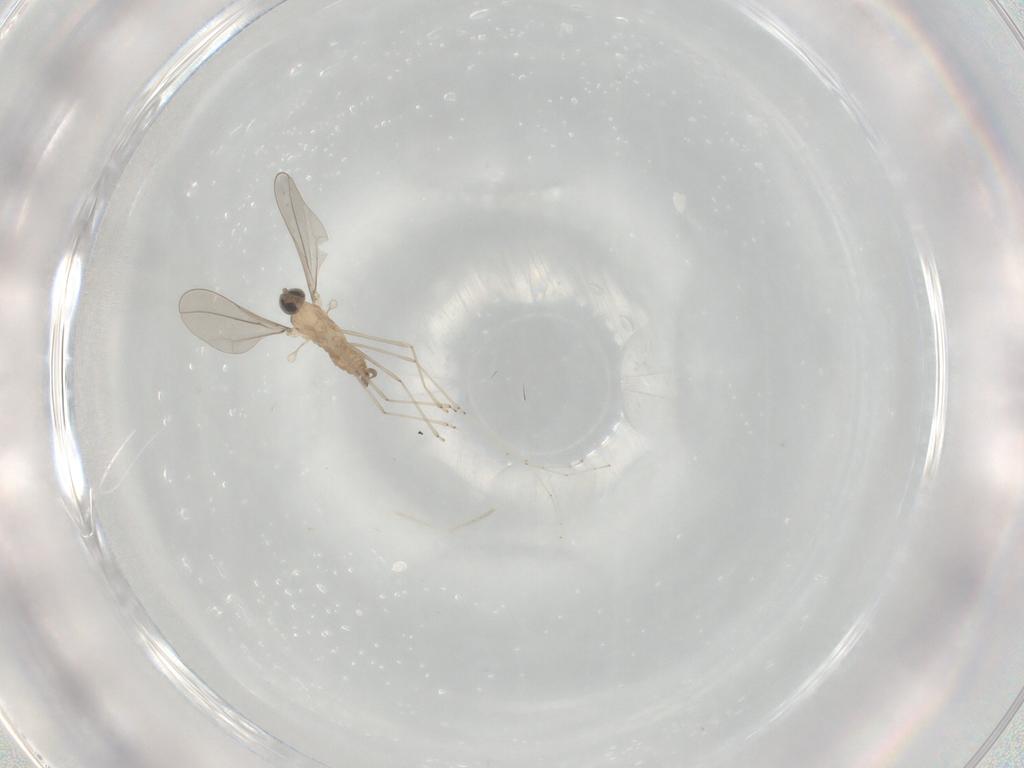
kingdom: Animalia
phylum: Arthropoda
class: Insecta
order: Diptera
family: Cecidomyiidae
